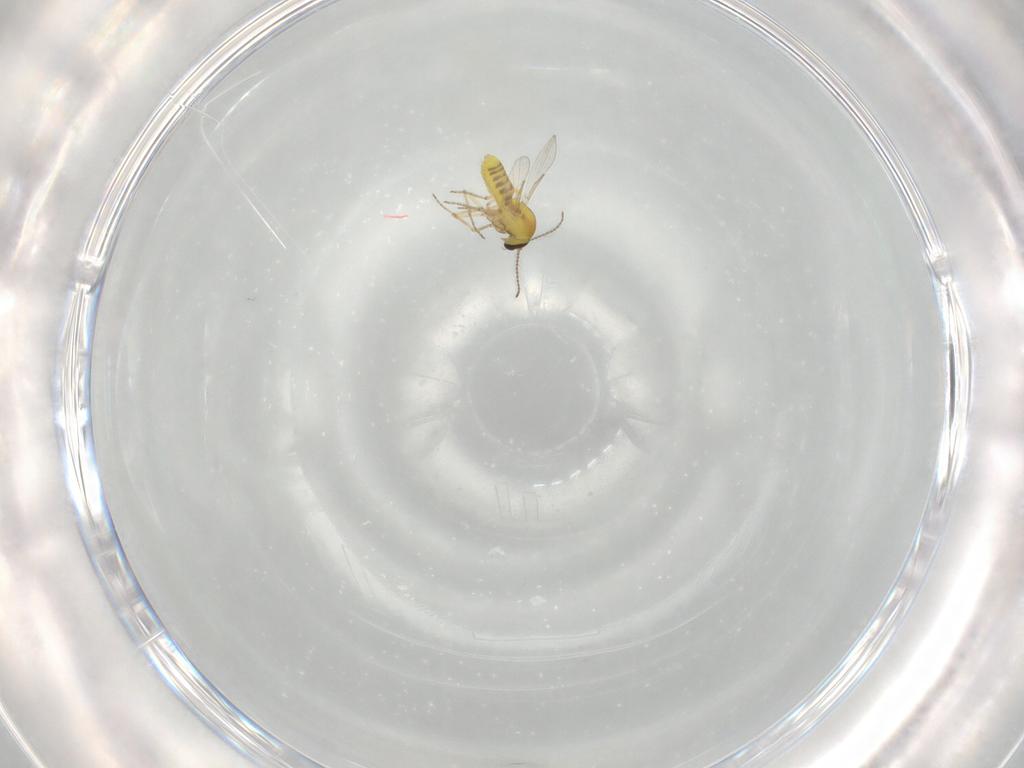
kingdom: Animalia
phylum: Arthropoda
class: Insecta
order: Diptera
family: Ceratopogonidae
